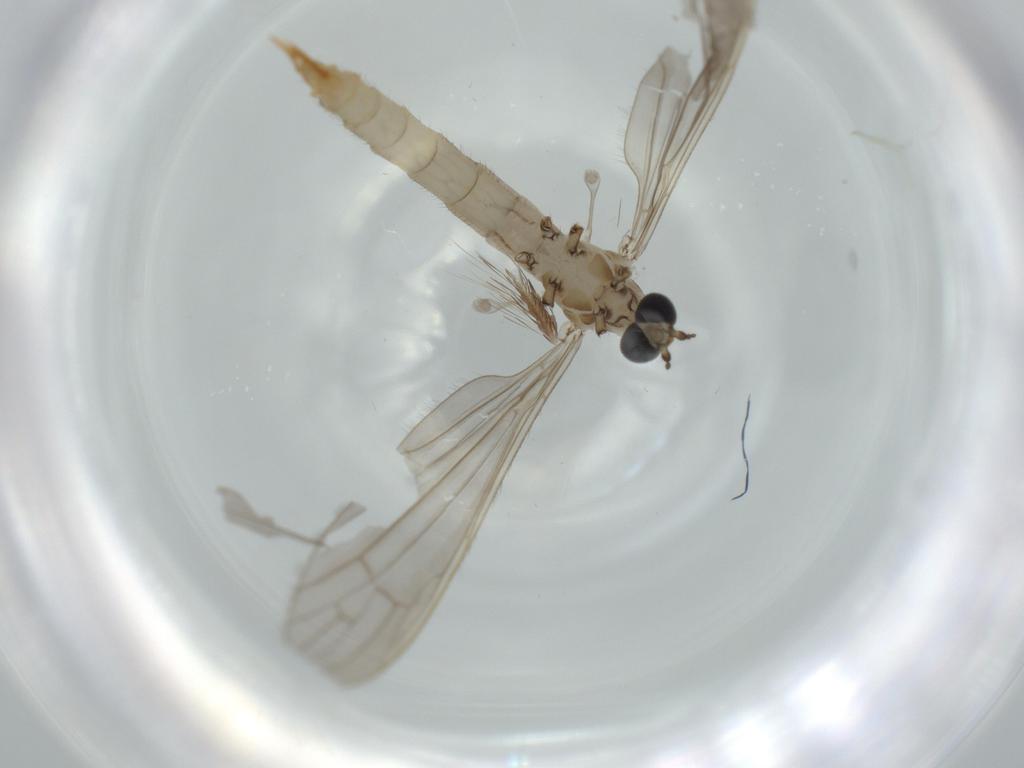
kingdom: Animalia
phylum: Arthropoda
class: Insecta
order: Diptera
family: Limoniidae
